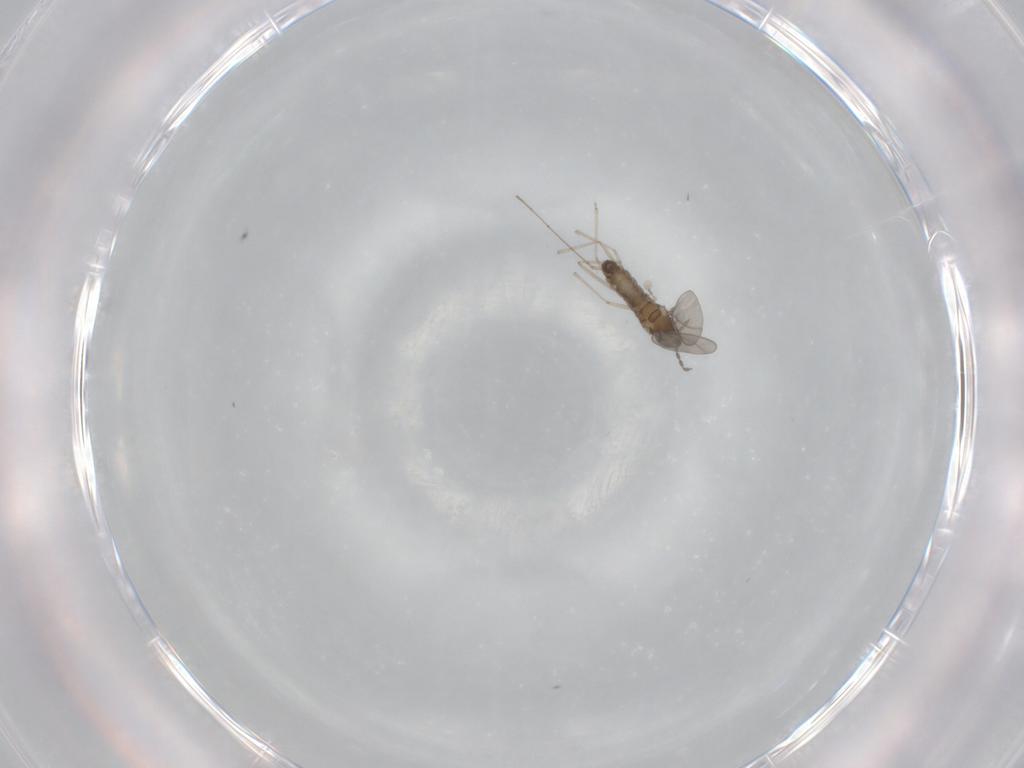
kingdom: Animalia
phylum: Arthropoda
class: Insecta
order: Diptera
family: Cecidomyiidae
